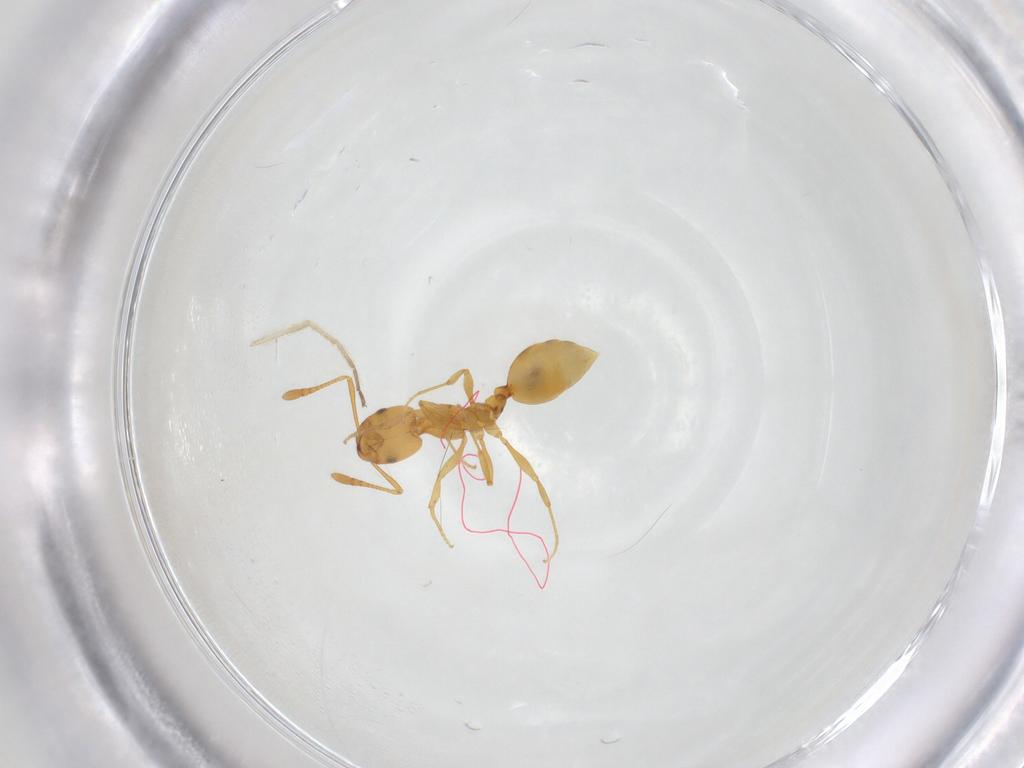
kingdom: Animalia
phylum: Arthropoda
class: Insecta
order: Hymenoptera
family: Formicidae
